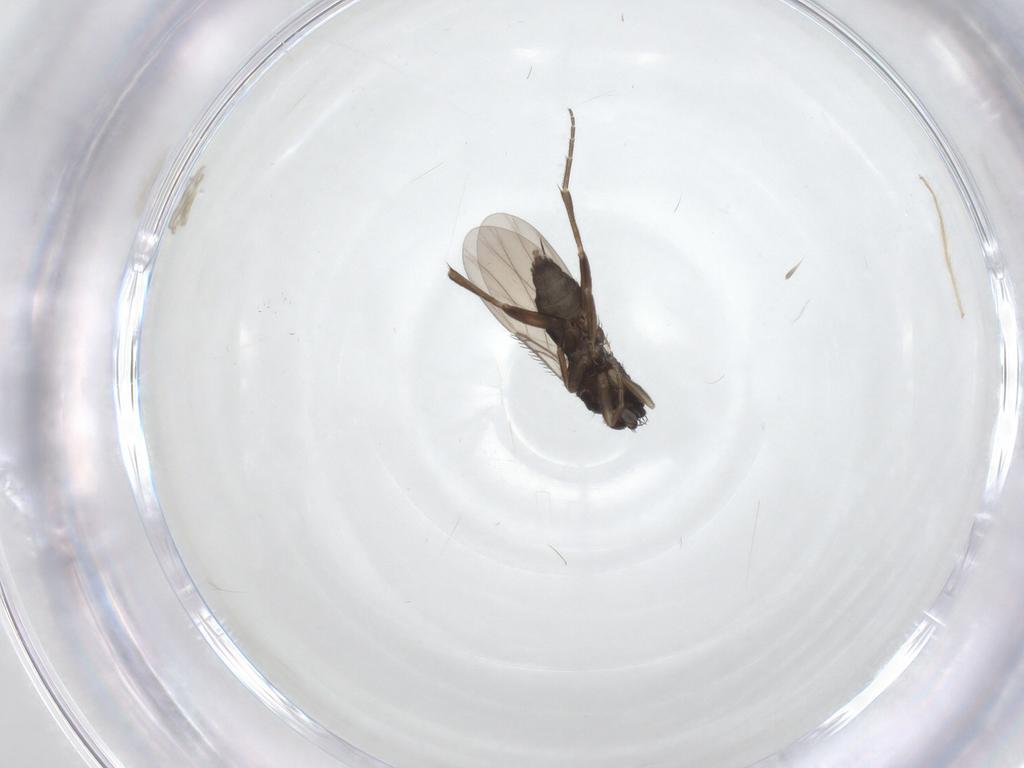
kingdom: Animalia
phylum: Arthropoda
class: Insecta
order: Diptera
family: Phoridae
